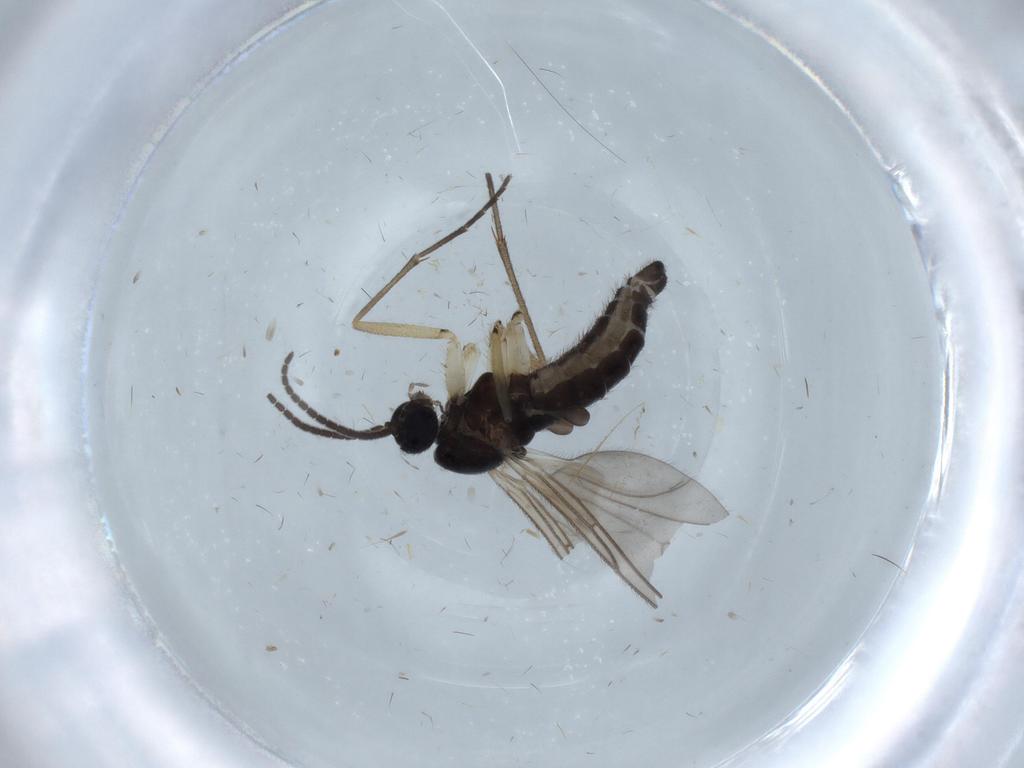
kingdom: Animalia
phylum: Arthropoda
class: Insecta
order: Diptera
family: Sciaridae
